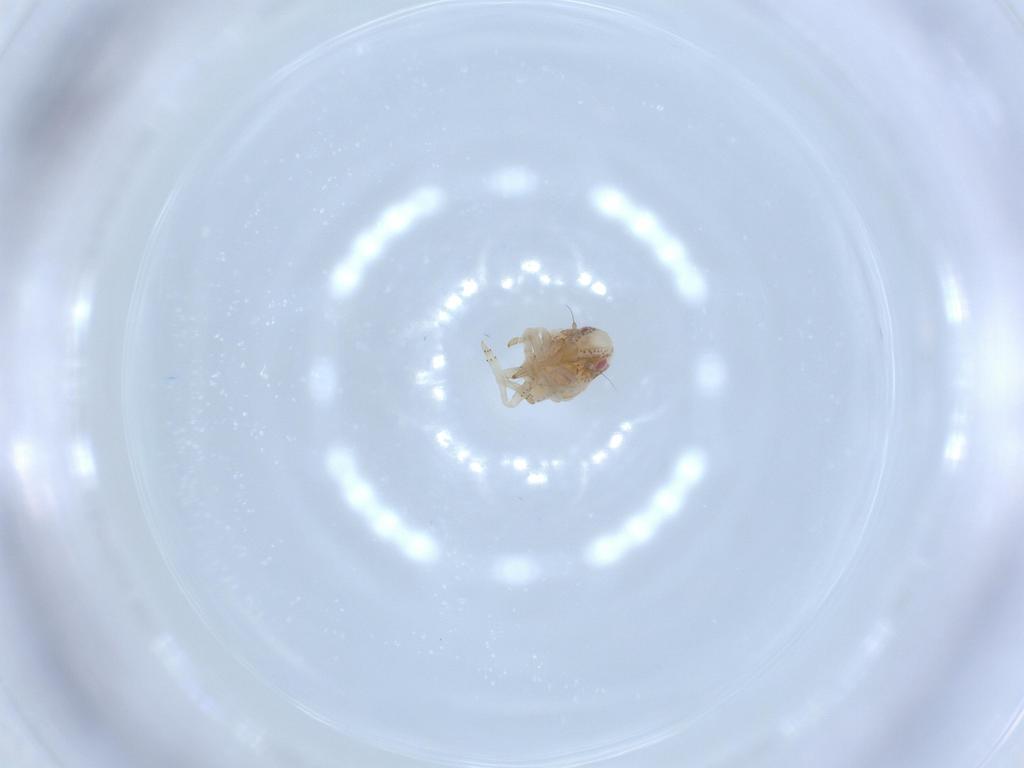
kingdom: Animalia
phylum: Arthropoda
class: Insecta
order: Hemiptera
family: Acanaloniidae
